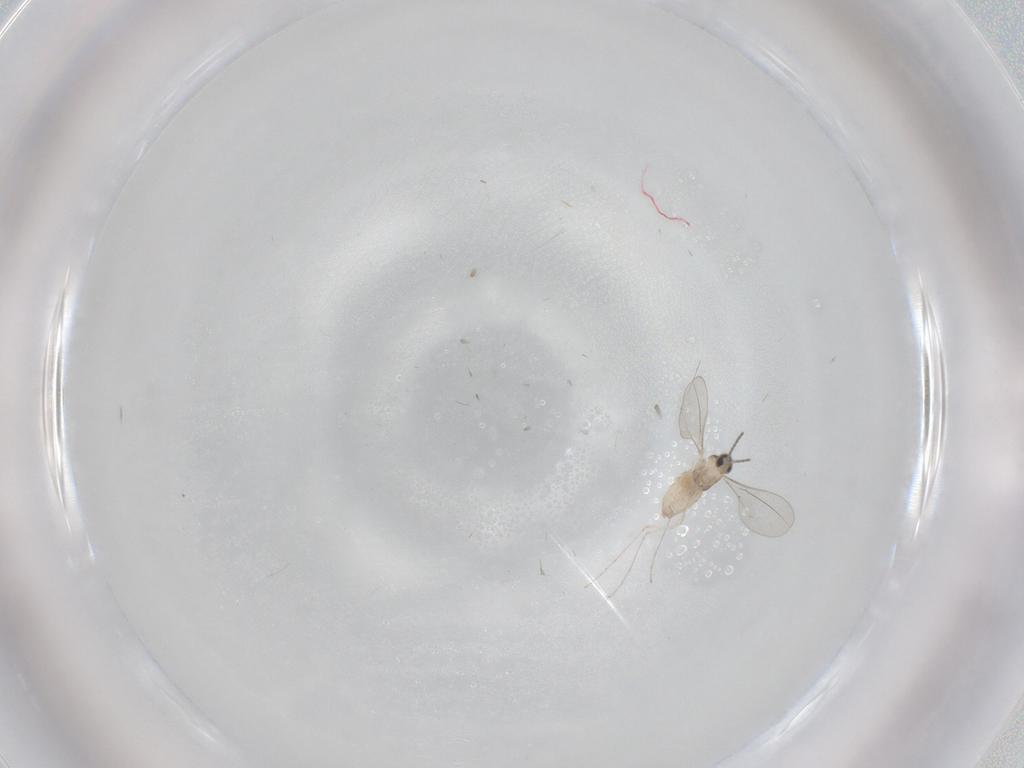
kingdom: Animalia
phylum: Arthropoda
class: Insecta
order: Diptera
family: Cecidomyiidae
